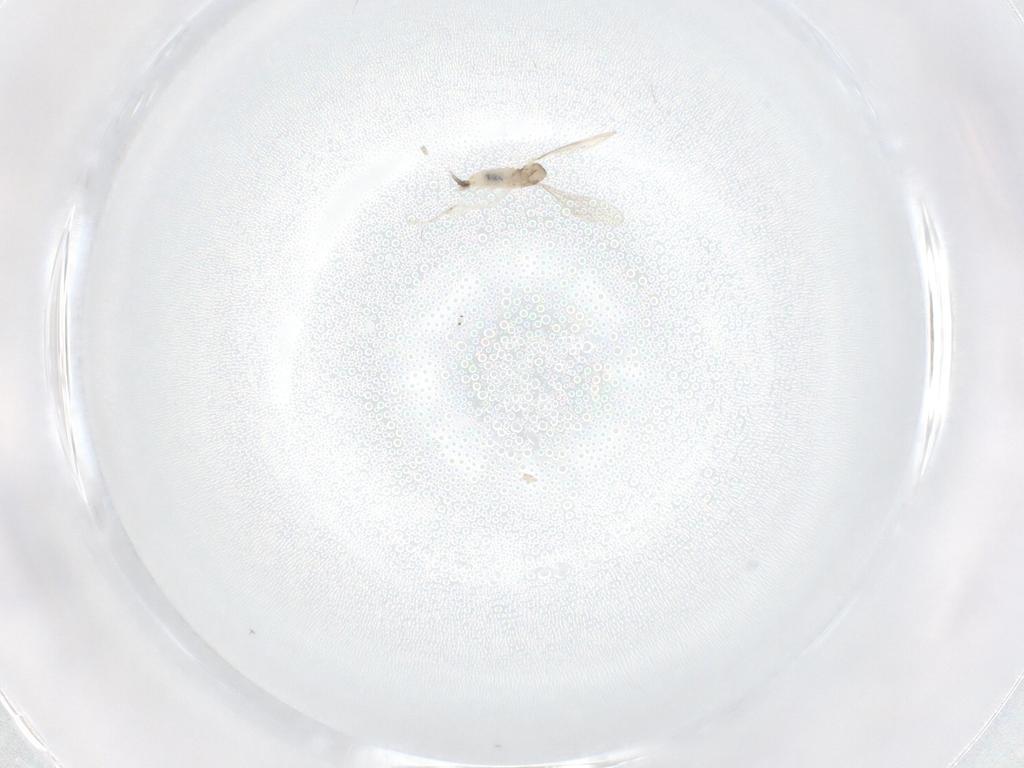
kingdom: Animalia
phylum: Arthropoda
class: Insecta
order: Diptera
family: Cecidomyiidae
